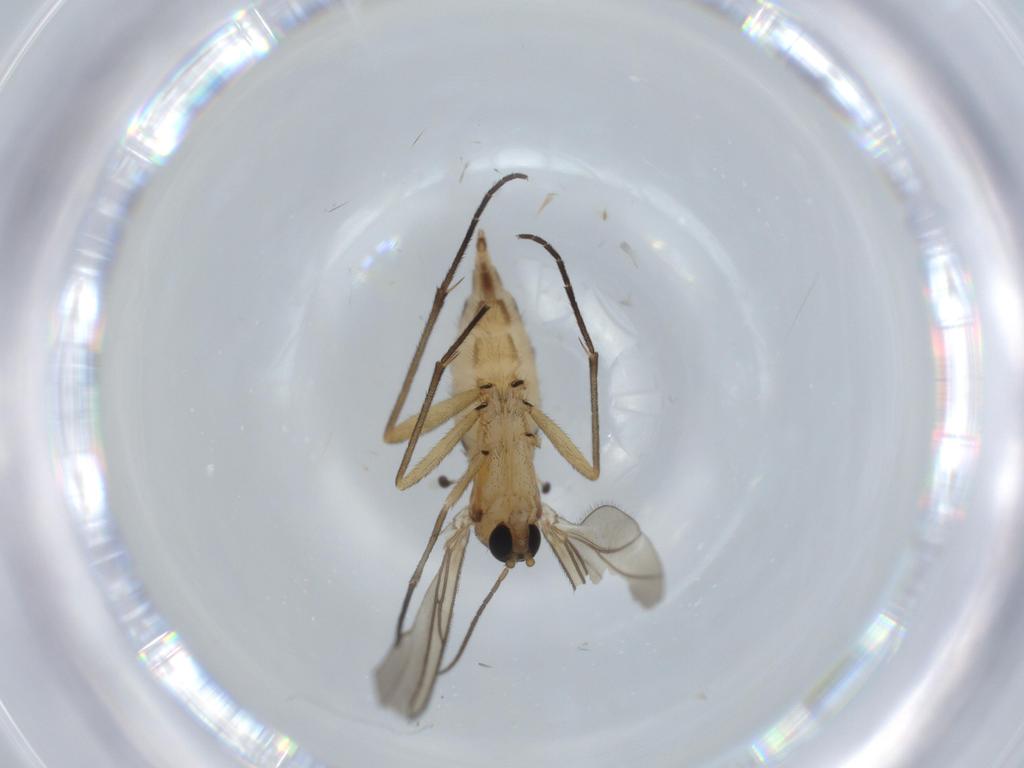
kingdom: Animalia
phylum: Arthropoda
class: Insecta
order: Diptera
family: Sciaridae
